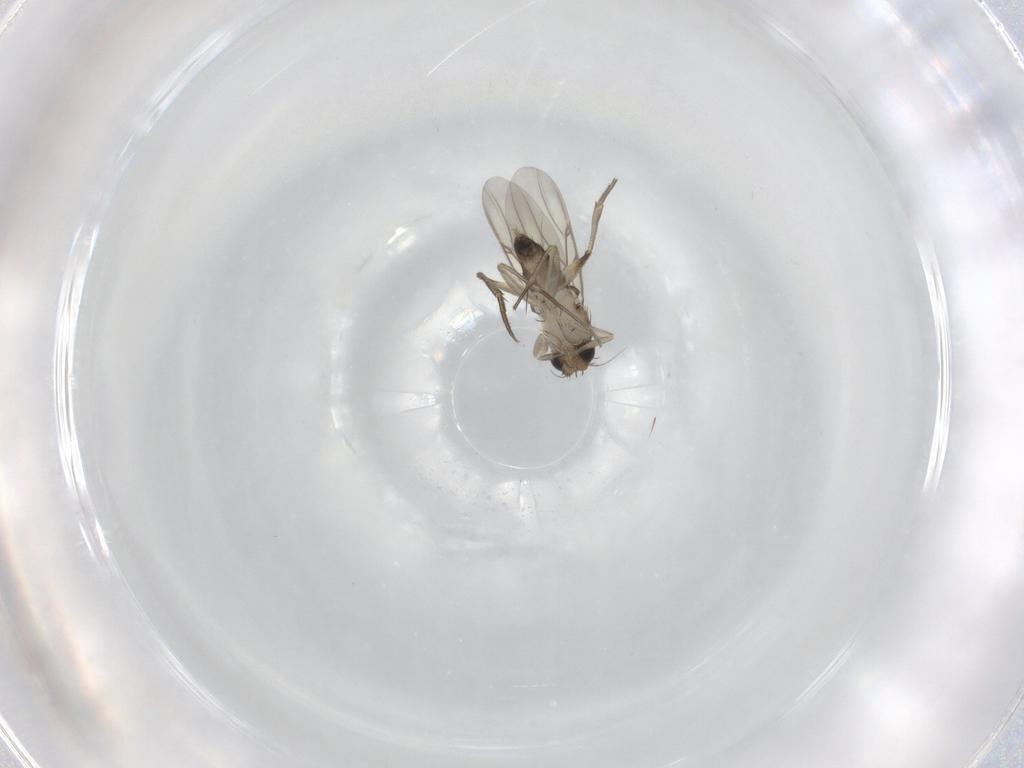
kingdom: Animalia
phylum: Arthropoda
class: Insecta
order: Diptera
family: Phoridae
